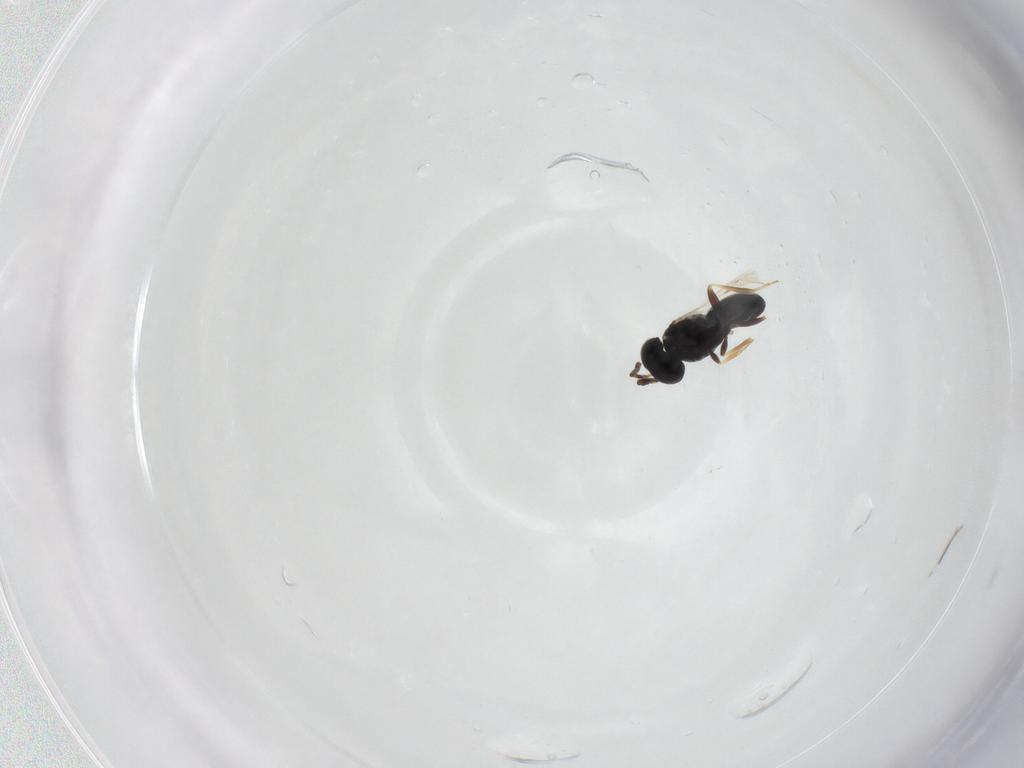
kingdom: Animalia
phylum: Arthropoda
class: Insecta
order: Hymenoptera
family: Scelionidae
